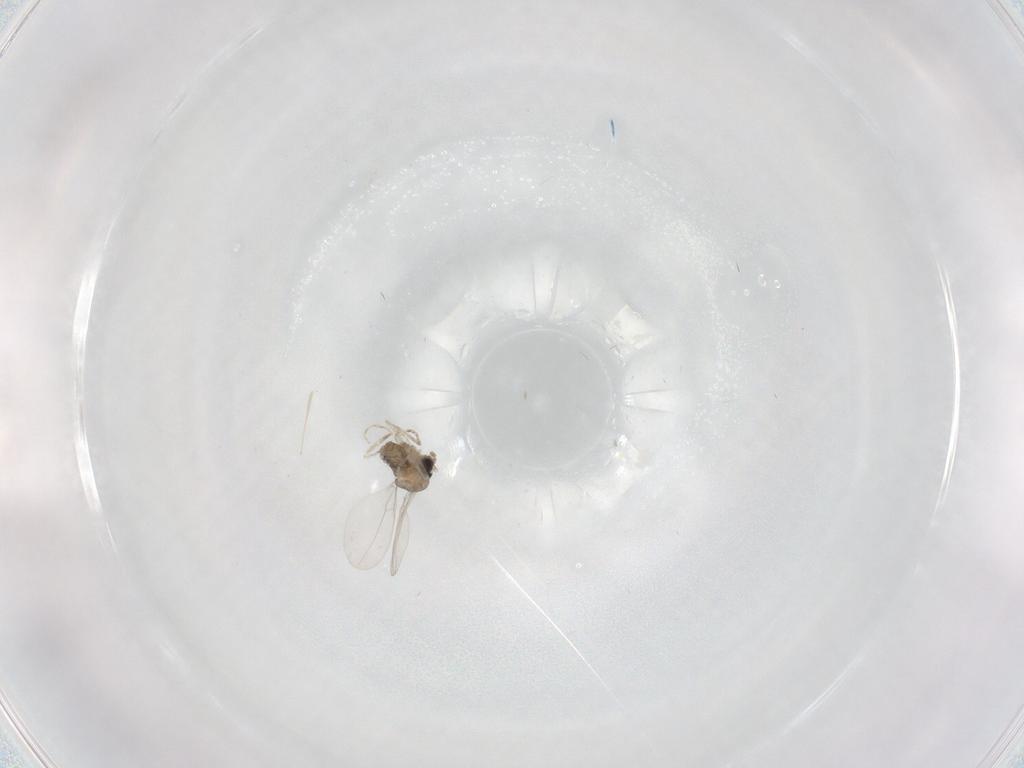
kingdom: Animalia
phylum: Arthropoda
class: Insecta
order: Diptera
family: Cecidomyiidae
